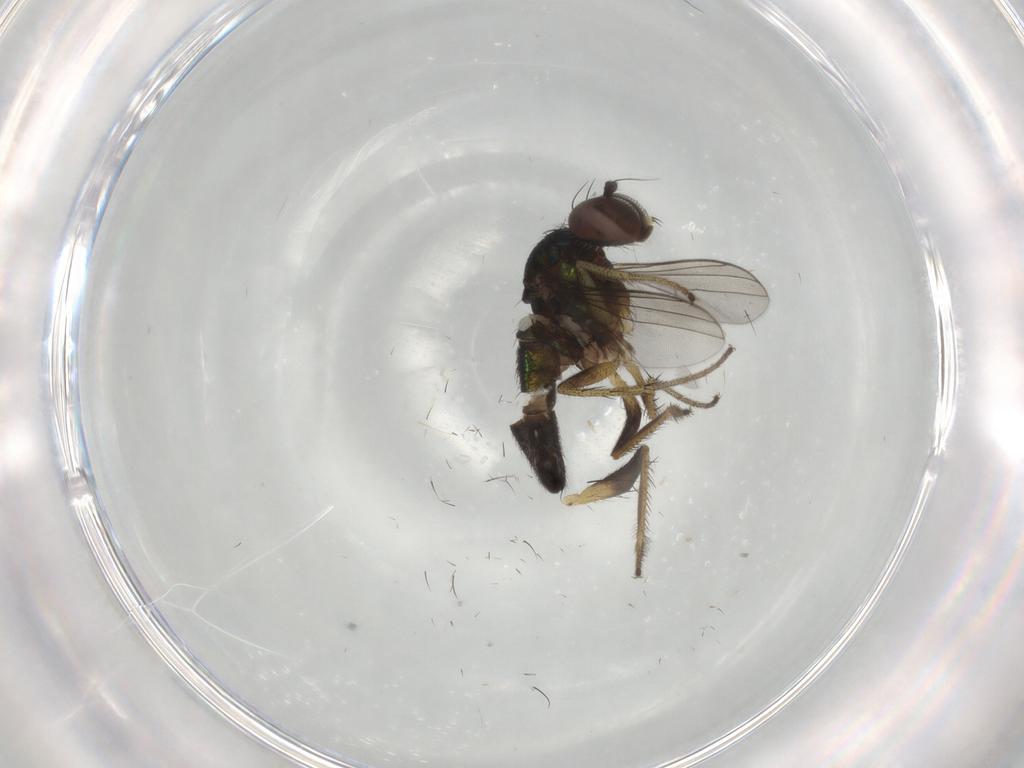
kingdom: Animalia
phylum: Arthropoda
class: Insecta
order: Diptera
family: Dolichopodidae
